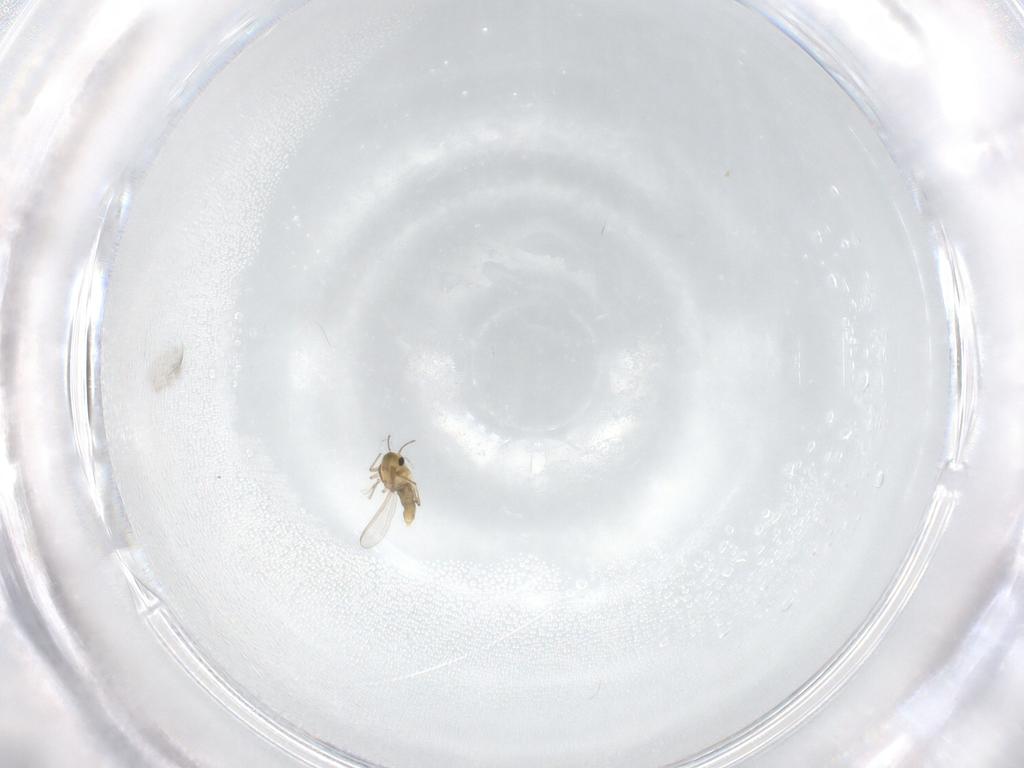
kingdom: Animalia
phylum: Arthropoda
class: Insecta
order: Diptera
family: Chironomidae
